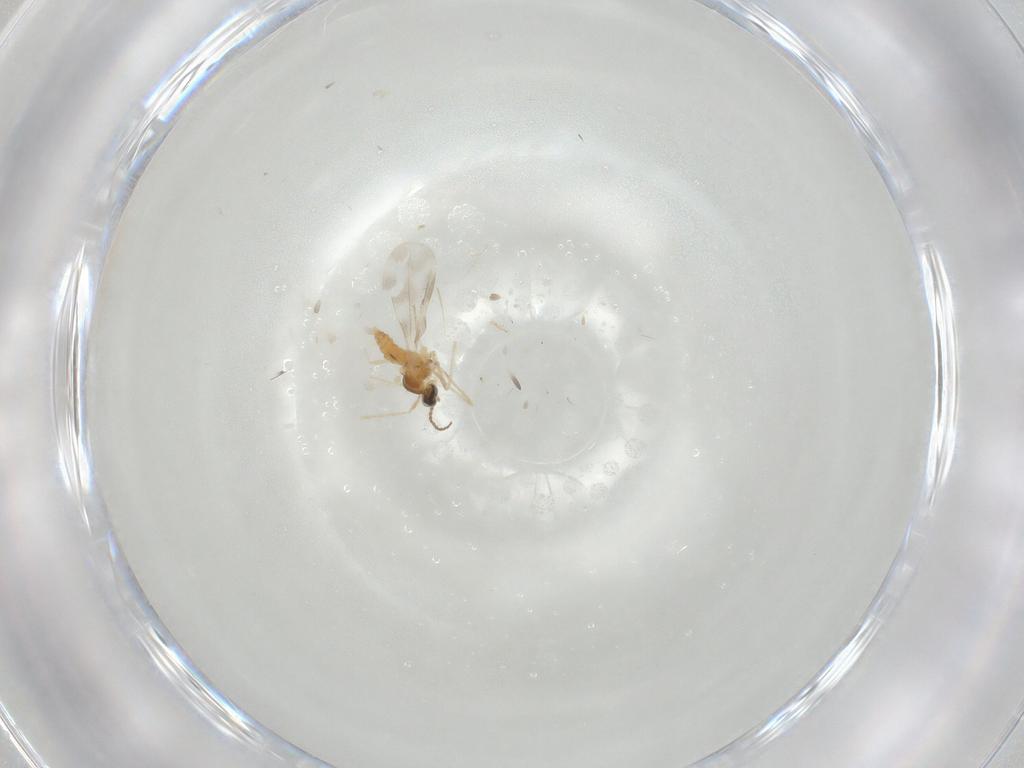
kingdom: Animalia
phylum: Arthropoda
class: Insecta
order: Diptera
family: Cecidomyiidae
